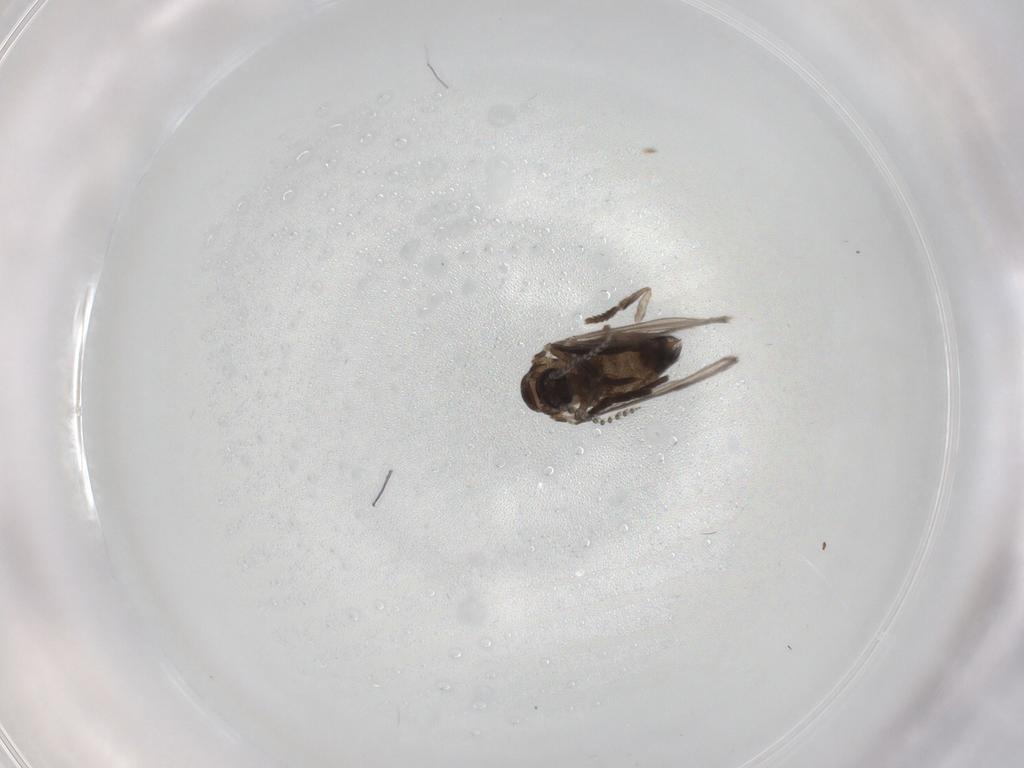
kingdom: Animalia
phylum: Arthropoda
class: Insecta
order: Diptera
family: Psychodidae
